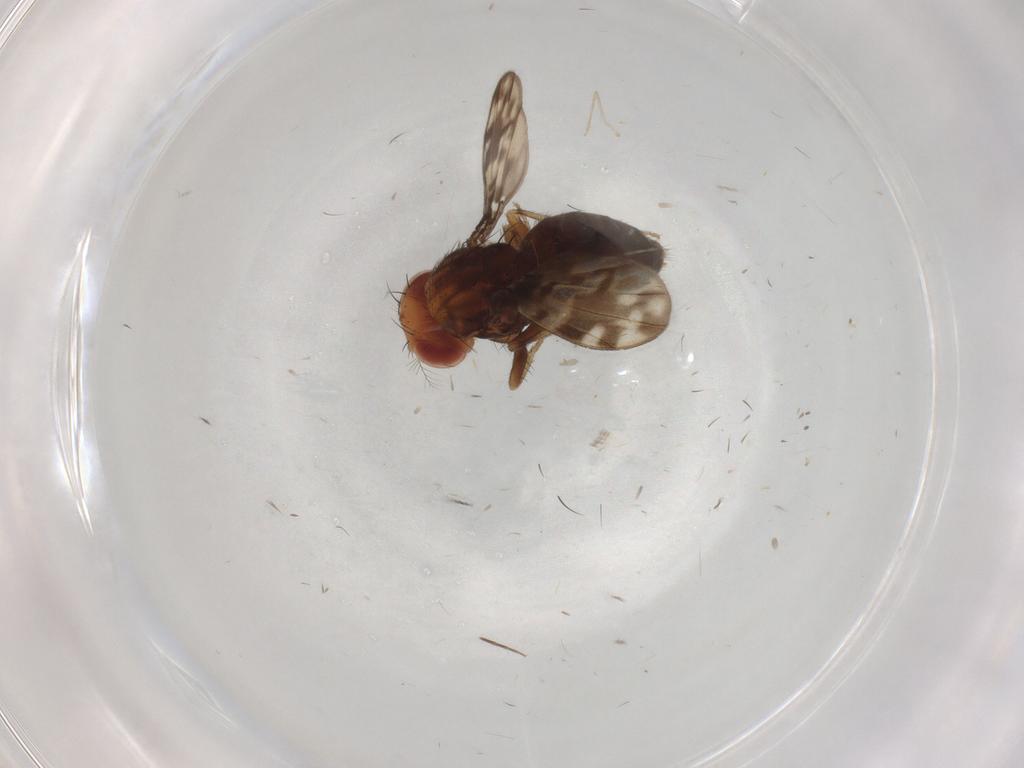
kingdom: Animalia
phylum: Arthropoda
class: Insecta
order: Diptera
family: Drosophilidae
